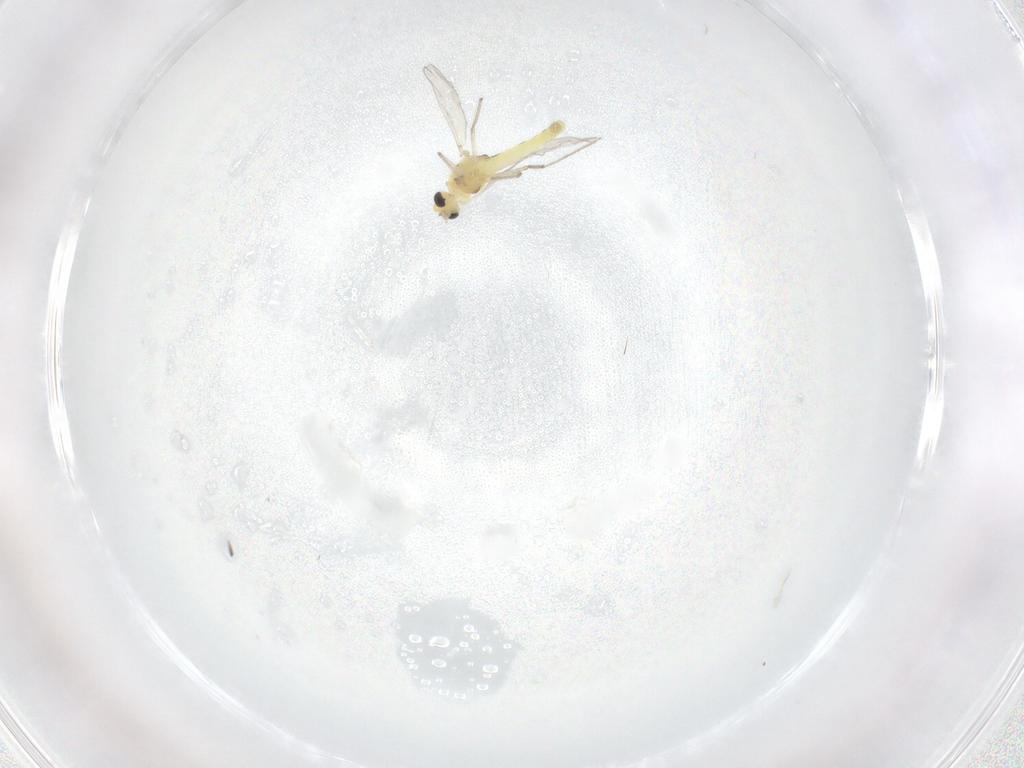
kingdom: Animalia
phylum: Arthropoda
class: Insecta
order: Diptera
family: Chironomidae
